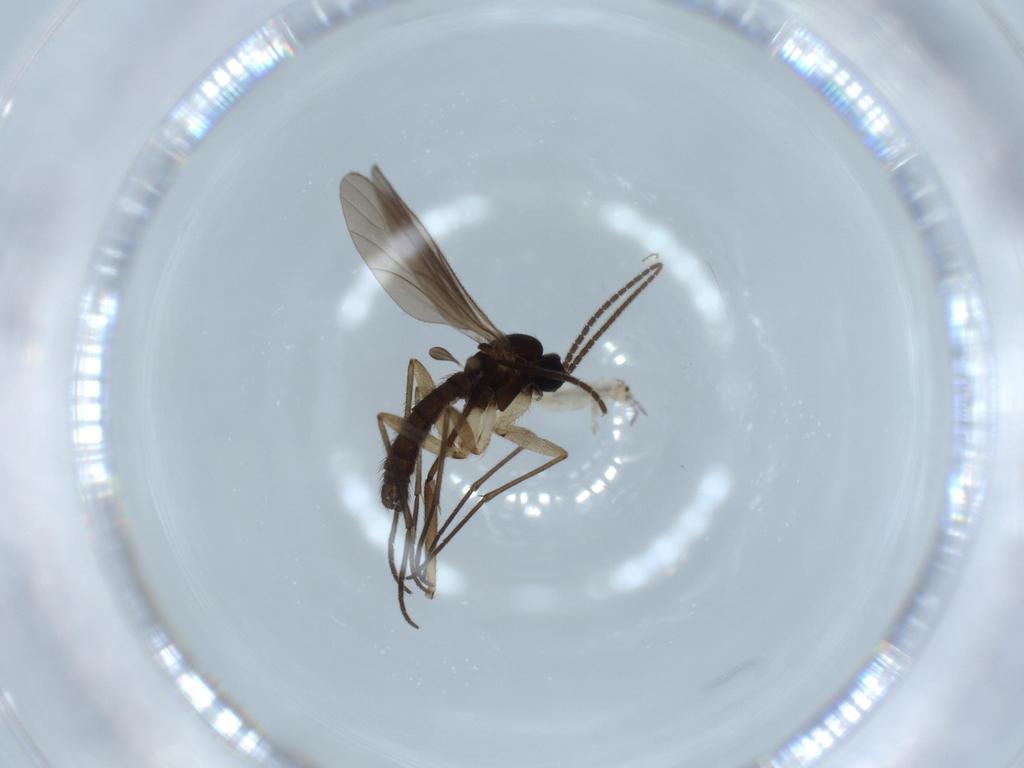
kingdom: Animalia
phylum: Arthropoda
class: Insecta
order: Diptera
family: Sciaridae
